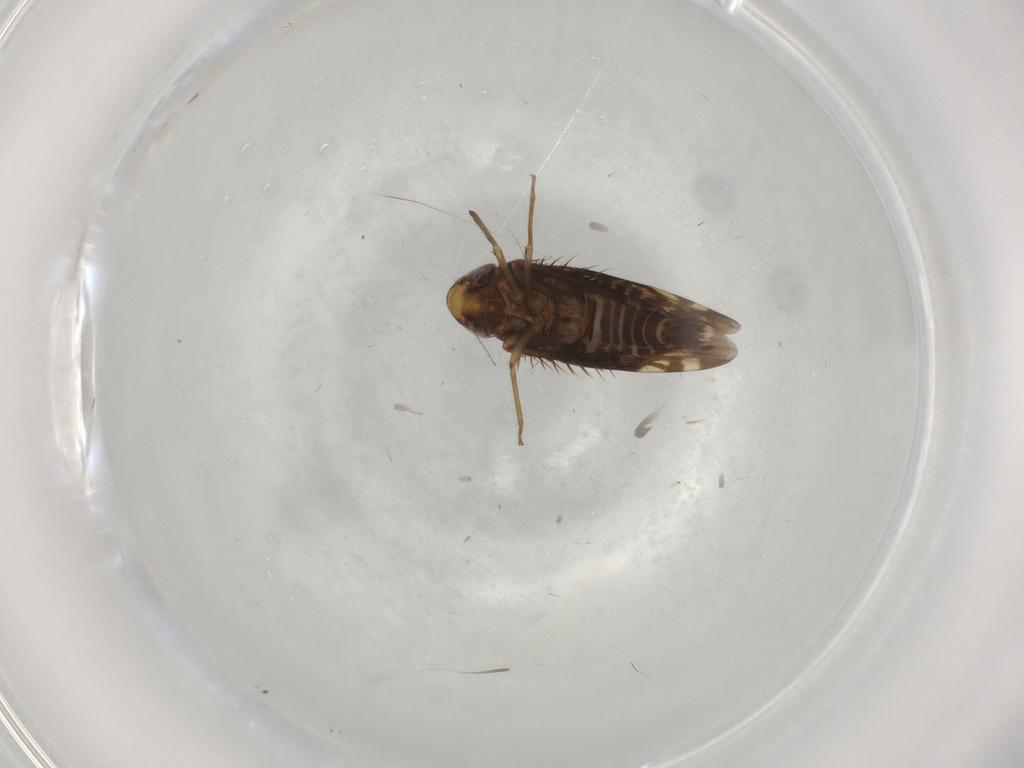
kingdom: Animalia
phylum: Arthropoda
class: Insecta
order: Hemiptera
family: Cicadellidae
